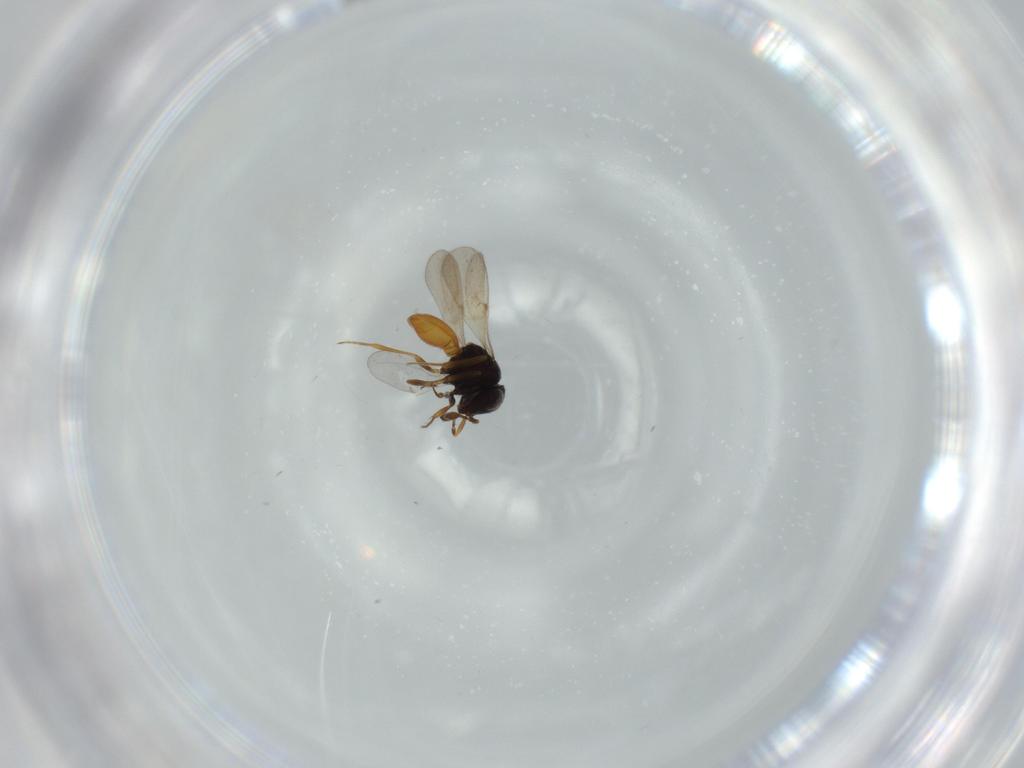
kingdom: Animalia
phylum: Arthropoda
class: Insecta
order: Hymenoptera
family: Scelionidae
